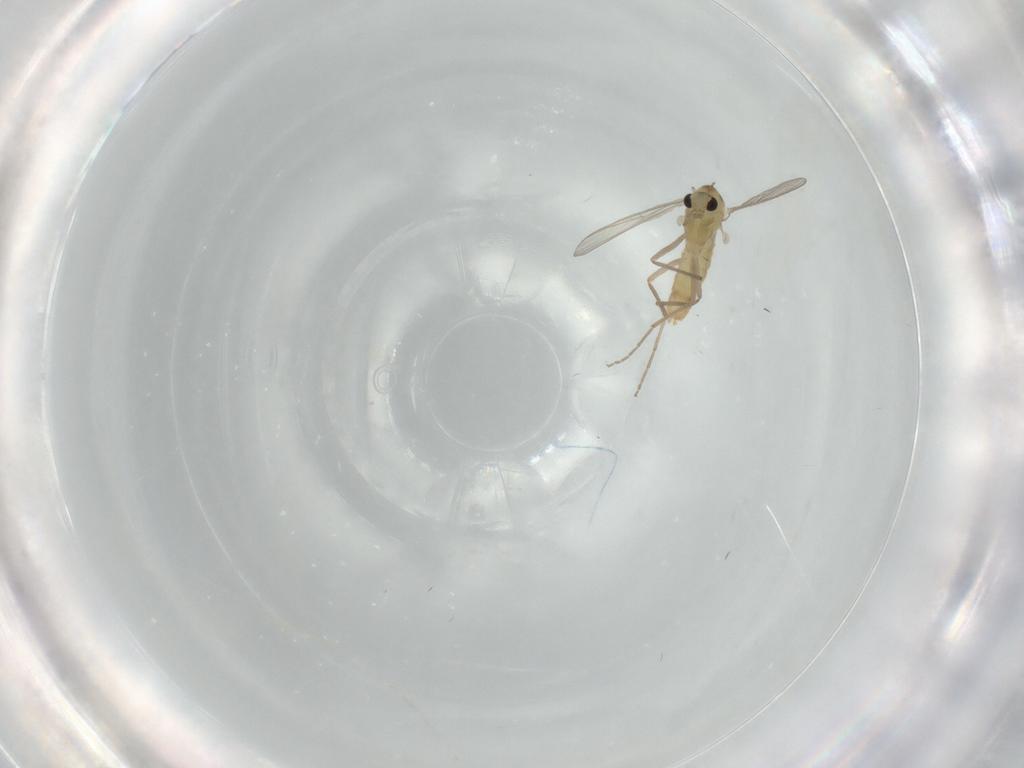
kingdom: Animalia
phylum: Arthropoda
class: Insecta
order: Diptera
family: Chironomidae
